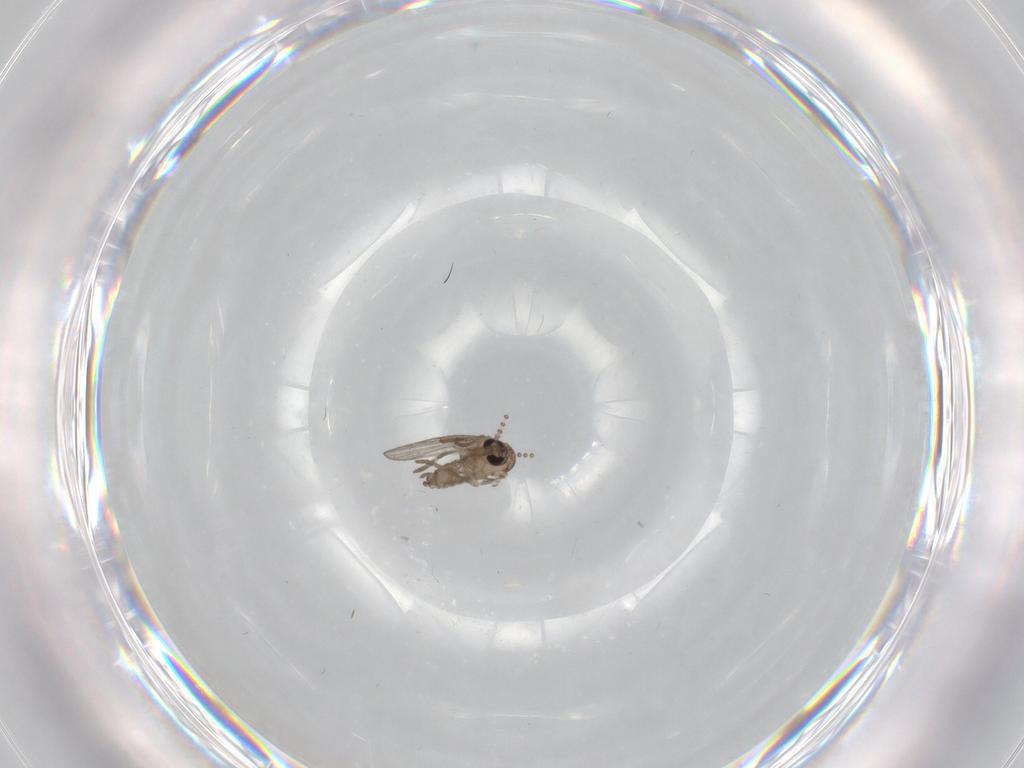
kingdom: Animalia
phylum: Arthropoda
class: Insecta
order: Diptera
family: Psychodidae
